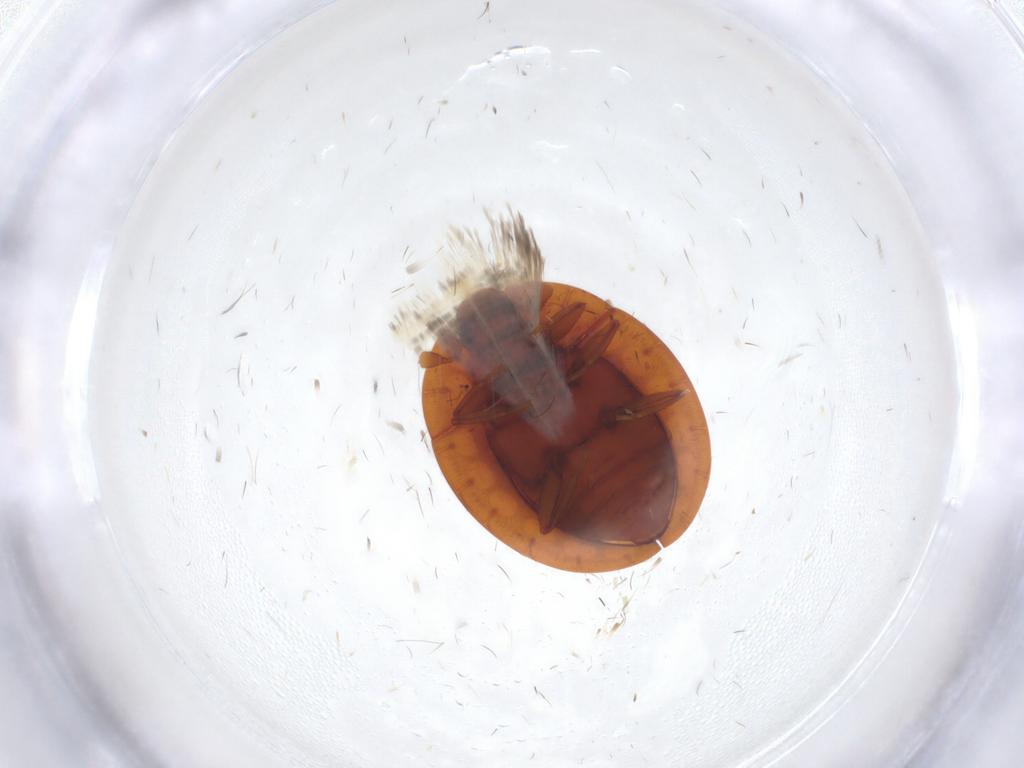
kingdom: Animalia
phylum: Arthropoda
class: Insecta
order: Coleoptera
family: Discolomatidae
